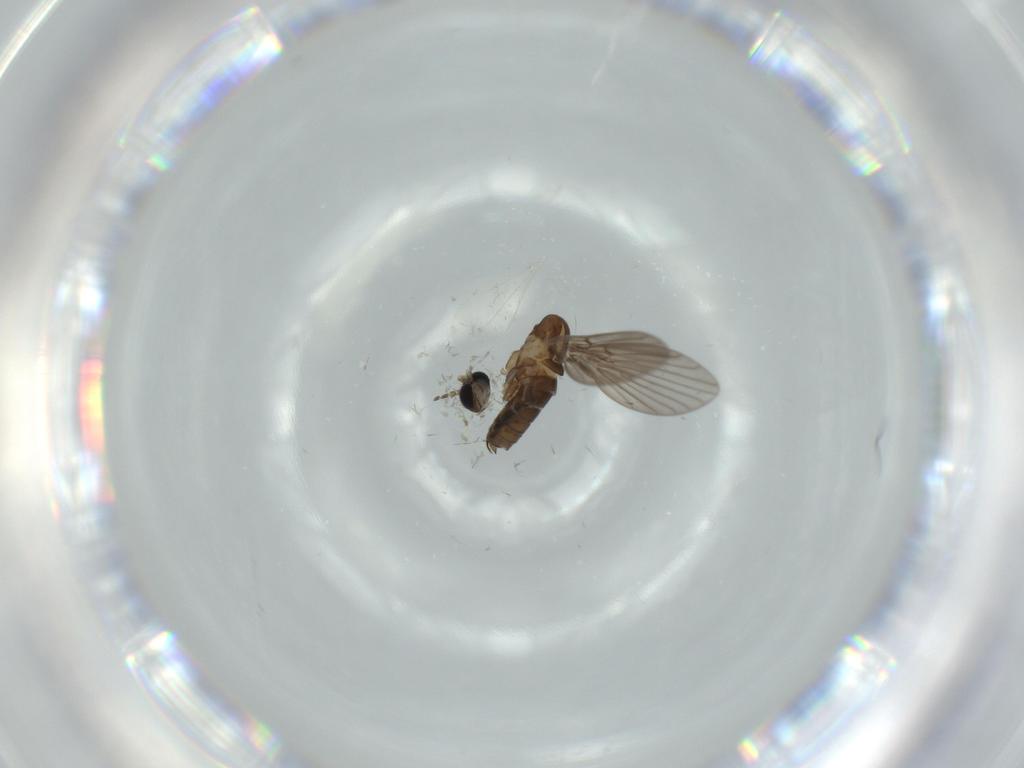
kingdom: Animalia
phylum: Arthropoda
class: Insecta
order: Diptera
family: Psychodidae
